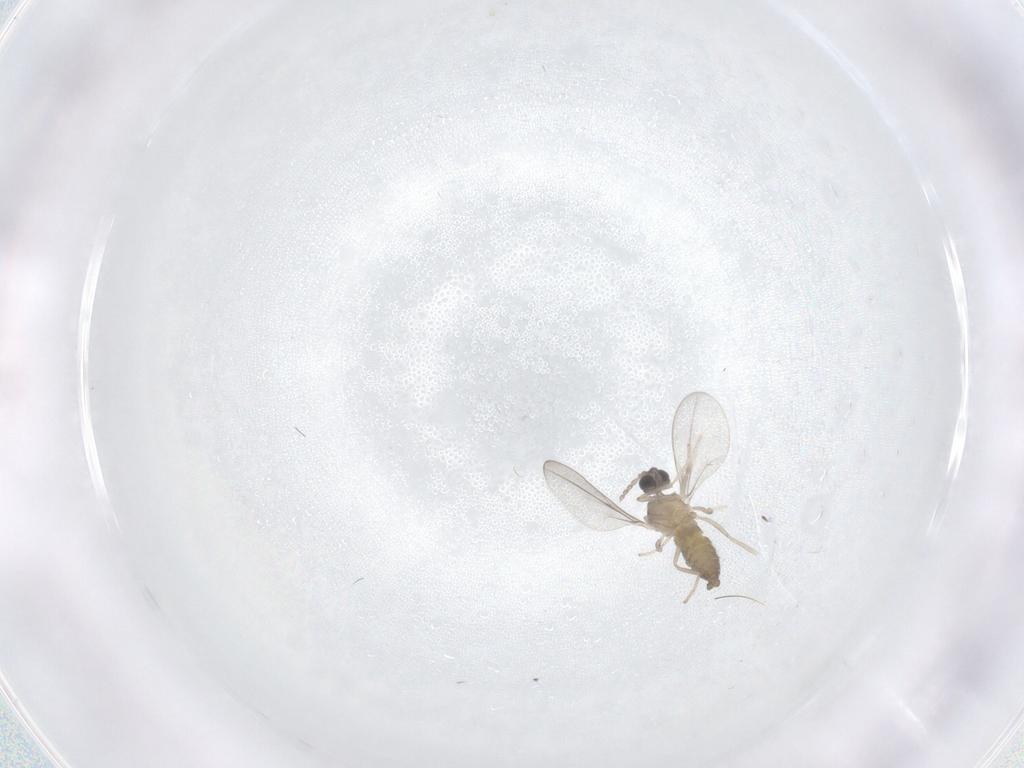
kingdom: Animalia
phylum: Arthropoda
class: Insecta
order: Diptera
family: Cecidomyiidae
